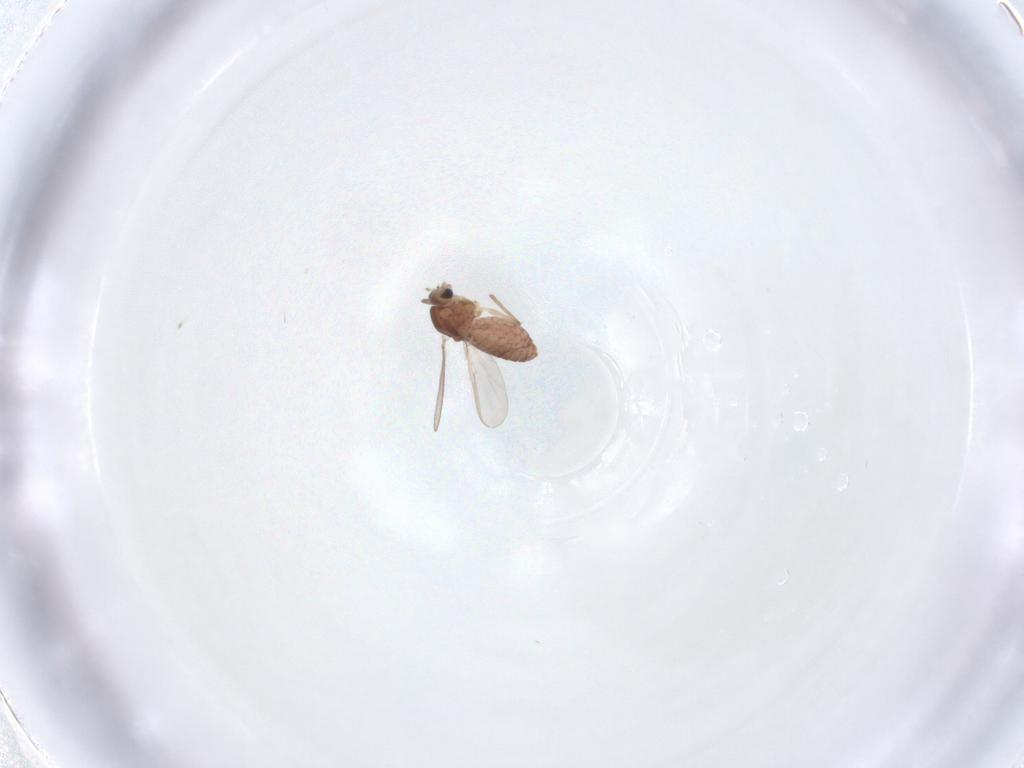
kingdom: Animalia
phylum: Arthropoda
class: Insecta
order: Diptera
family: Chironomidae
